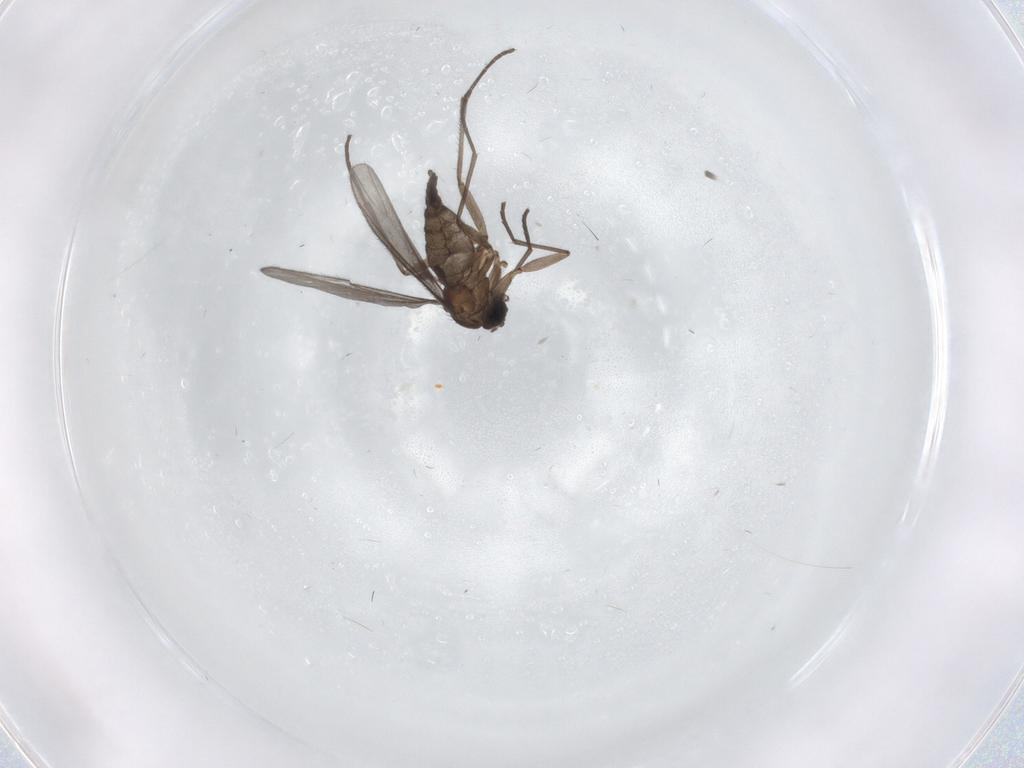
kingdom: Animalia
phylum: Arthropoda
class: Insecta
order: Diptera
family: Sciaridae
